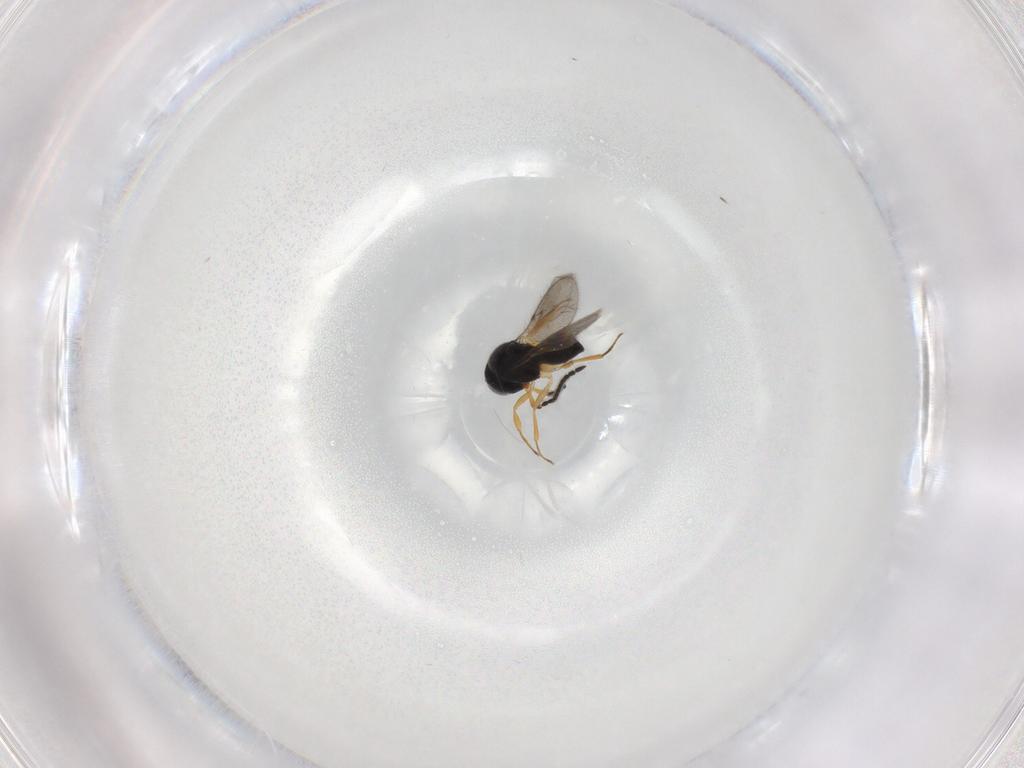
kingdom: Animalia
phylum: Arthropoda
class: Insecta
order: Hymenoptera
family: Scelionidae
